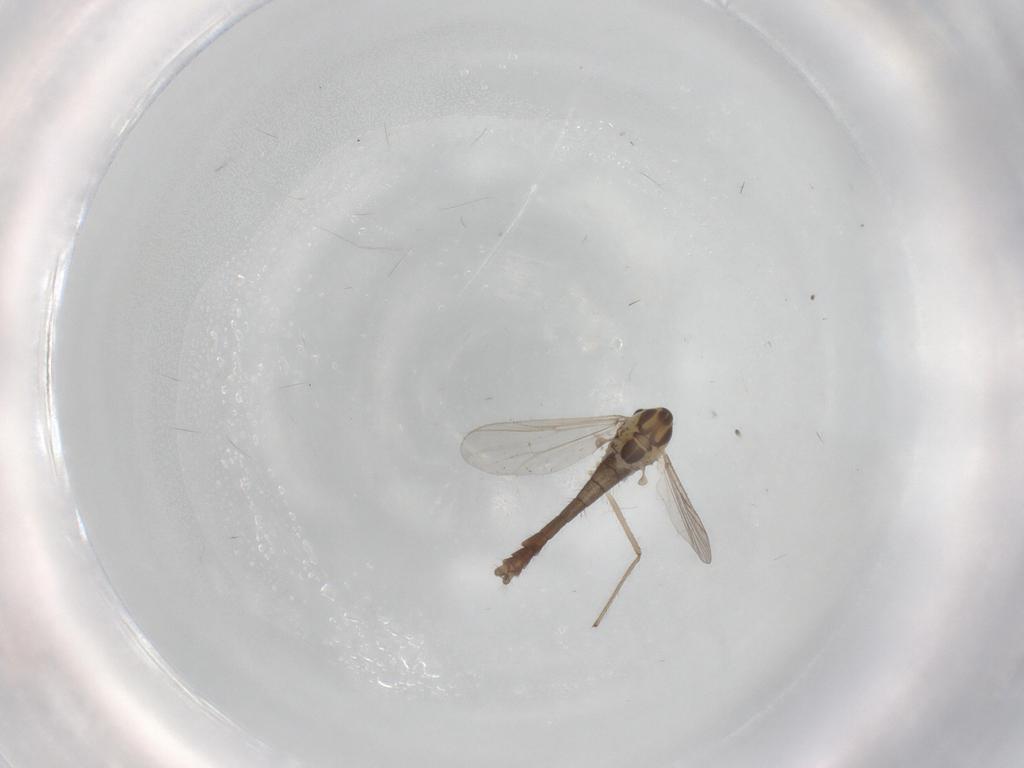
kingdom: Animalia
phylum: Arthropoda
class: Insecta
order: Diptera
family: Chironomidae
